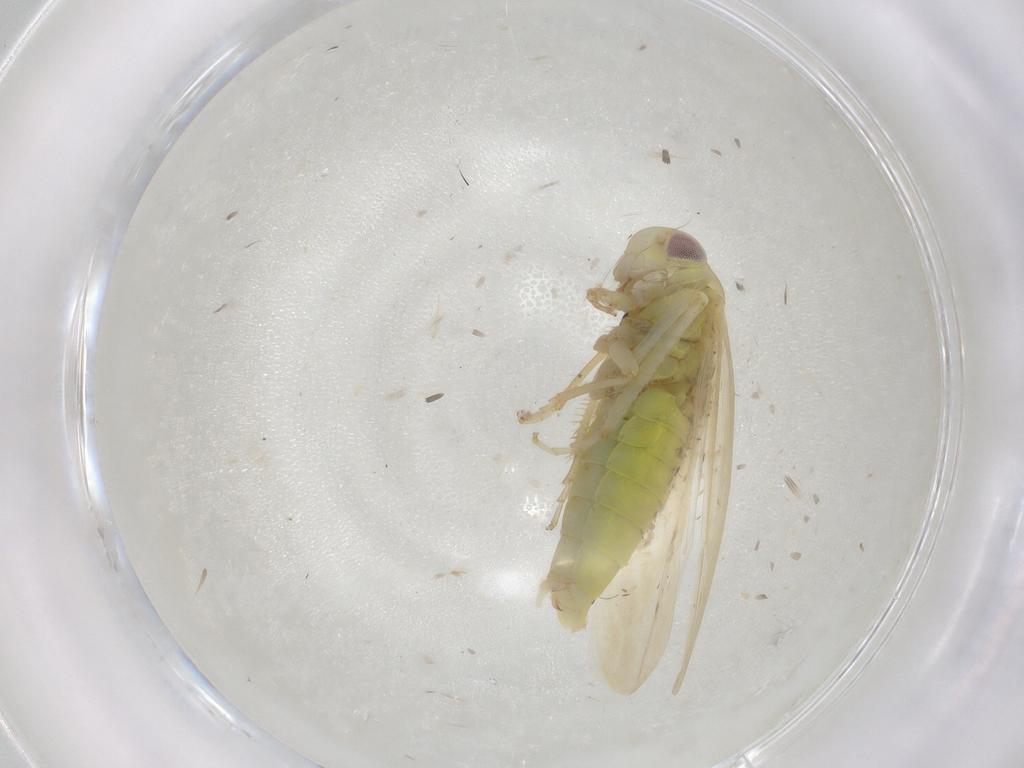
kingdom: Animalia
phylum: Arthropoda
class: Insecta
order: Hemiptera
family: Cicadellidae
